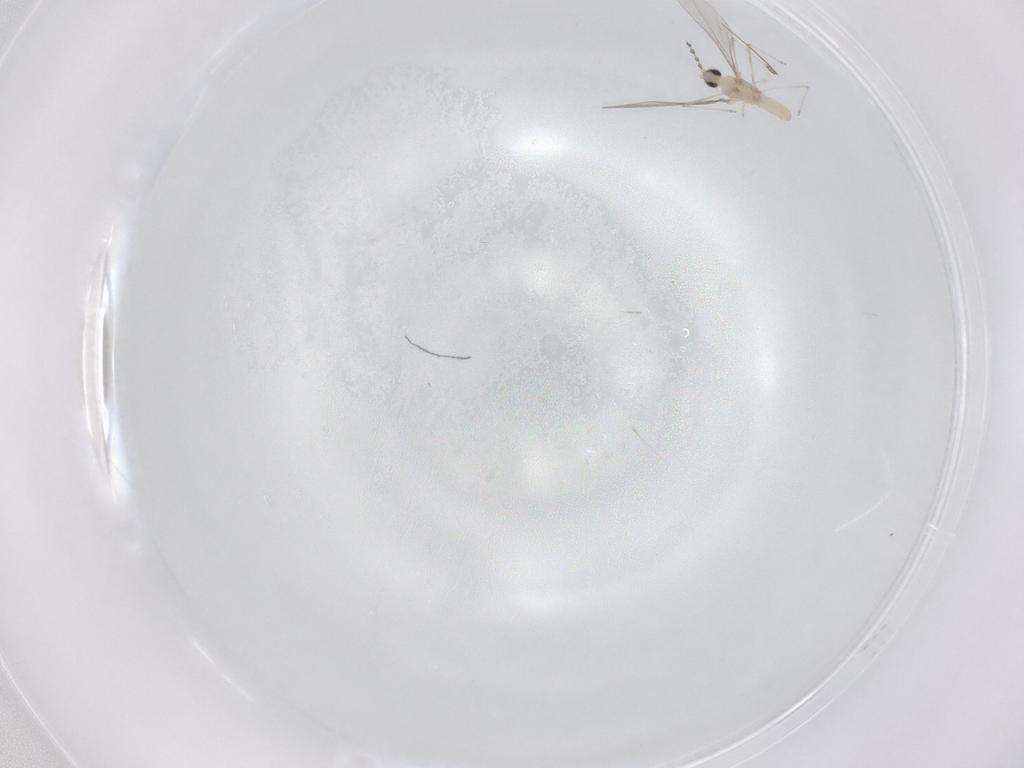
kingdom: Animalia
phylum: Arthropoda
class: Insecta
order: Diptera
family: Cecidomyiidae
